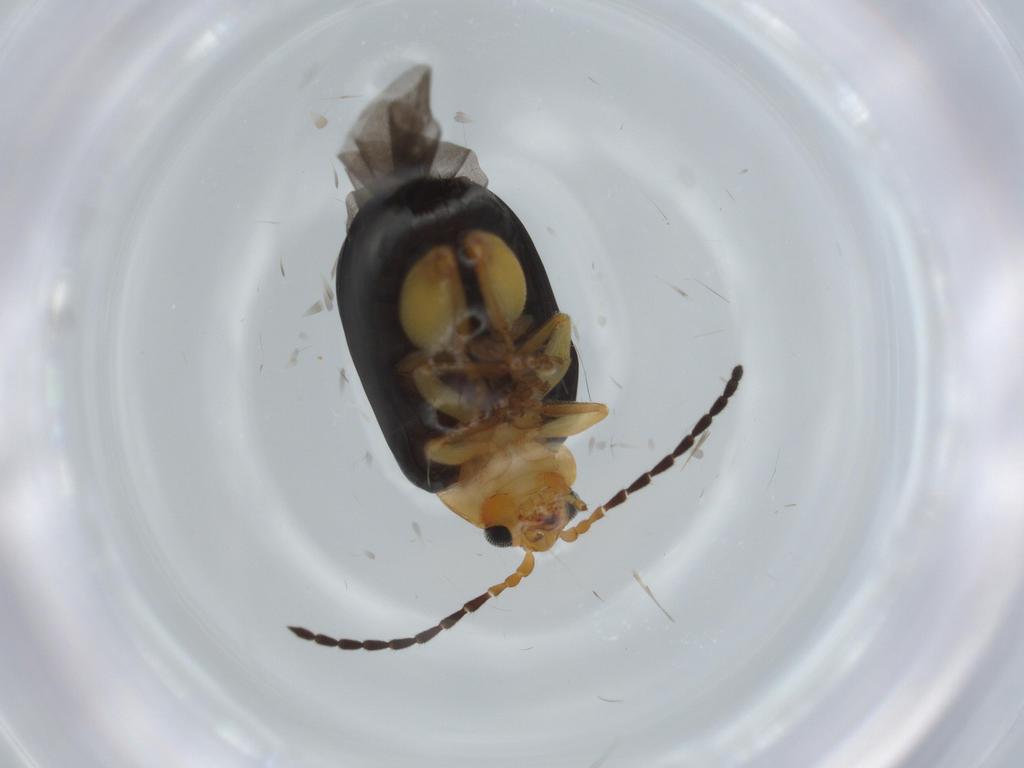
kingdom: Animalia
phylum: Arthropoda
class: Insecta
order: Coleoptera
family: Chrysomelidae
